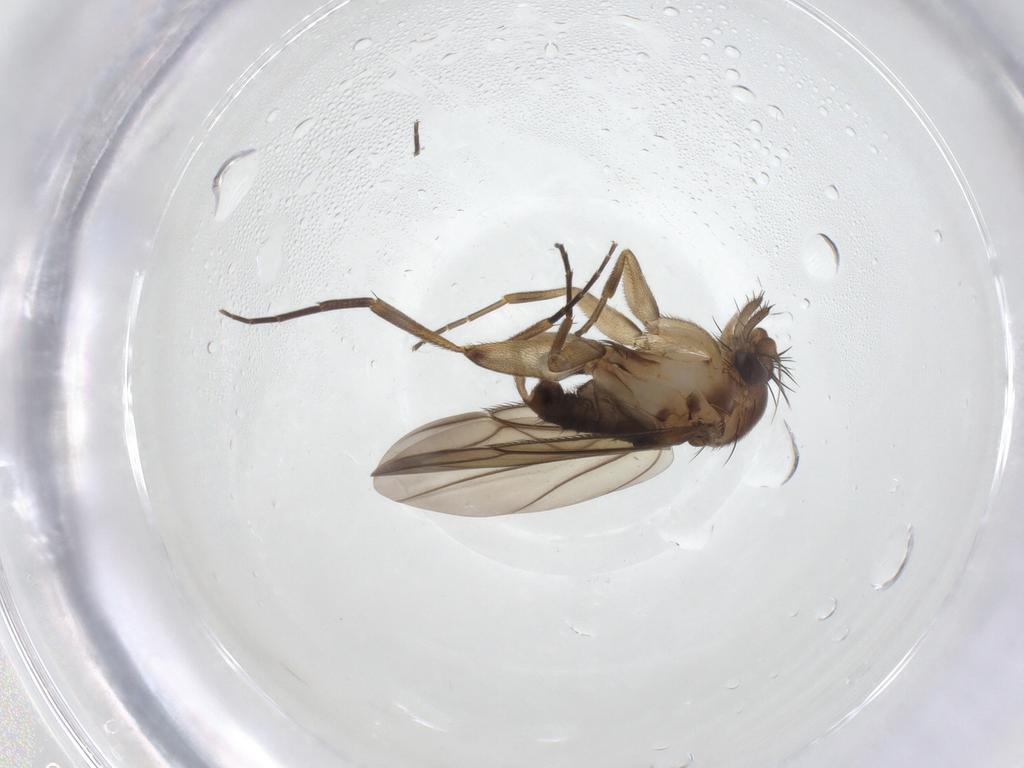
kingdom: Animalia
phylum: Arthropoda
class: Insecta
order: Diptera
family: Phoridae
